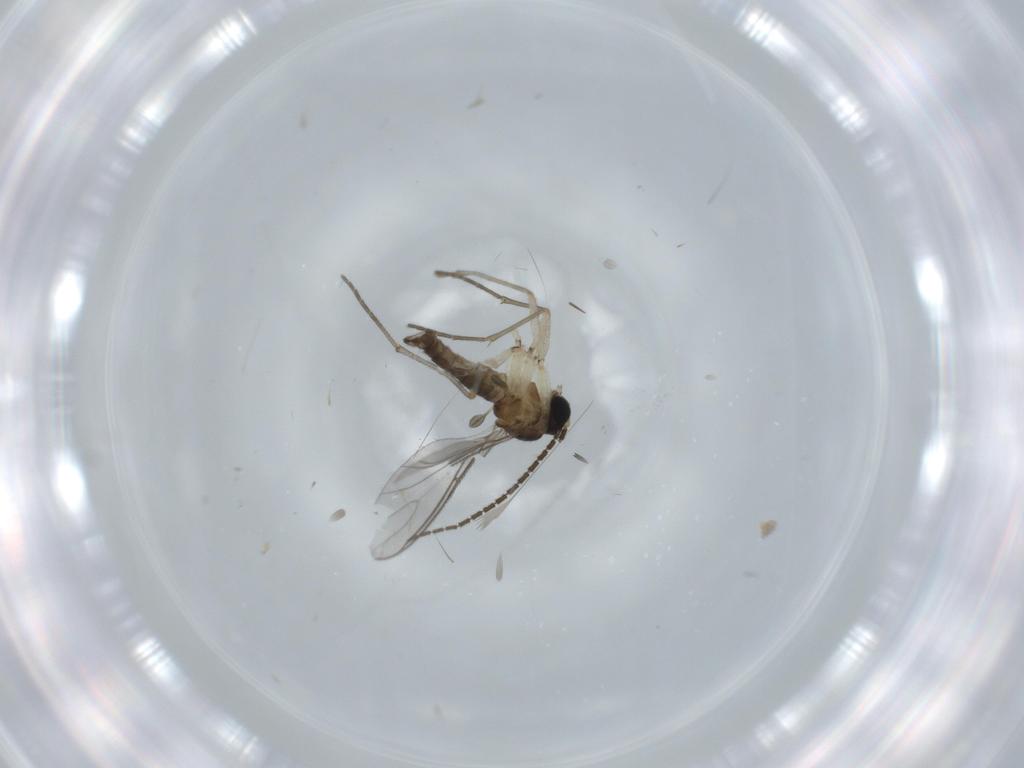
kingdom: Animalia
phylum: Arthropoda
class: Insecta
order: Diptera
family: Sciaridae
